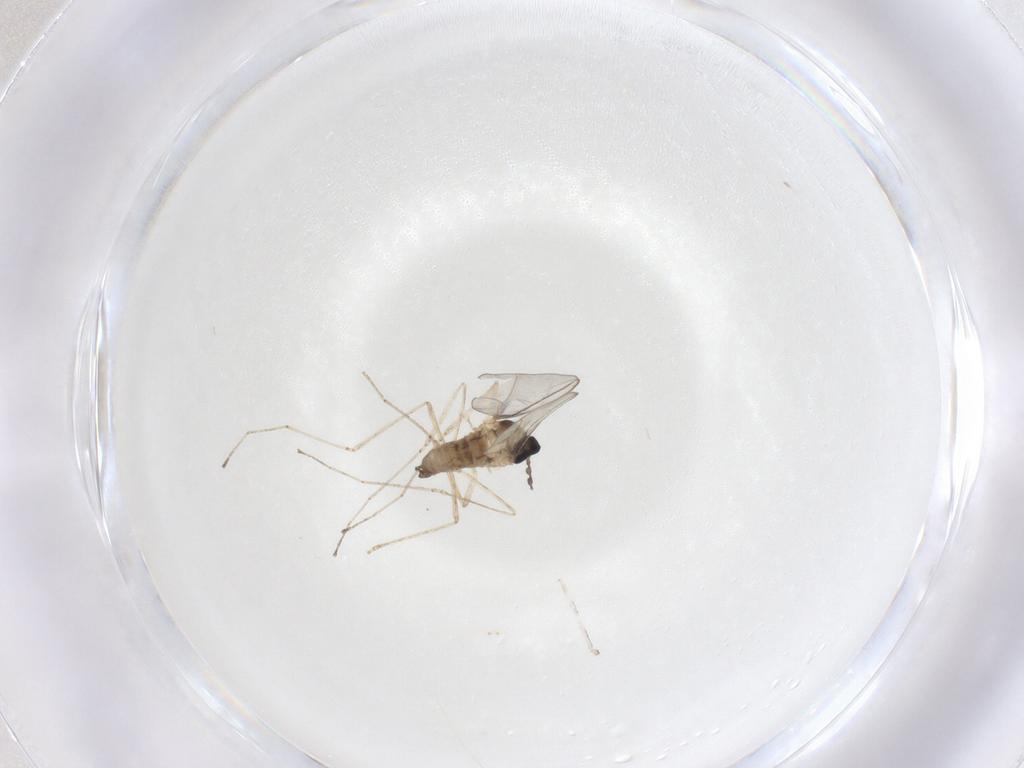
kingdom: Animalia
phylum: Arthropoda
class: Insecta
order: Diptera
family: Cecidomyiidae
